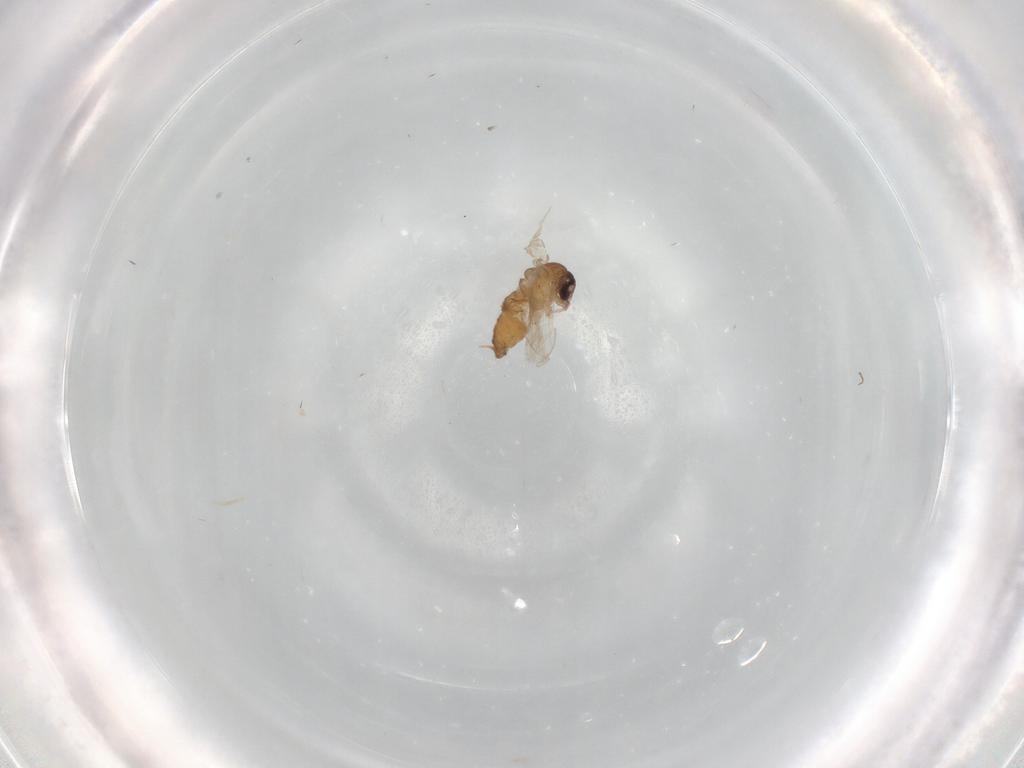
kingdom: Animalia
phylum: Arthropoda
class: Insecta
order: Diptera
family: Psychodidae
